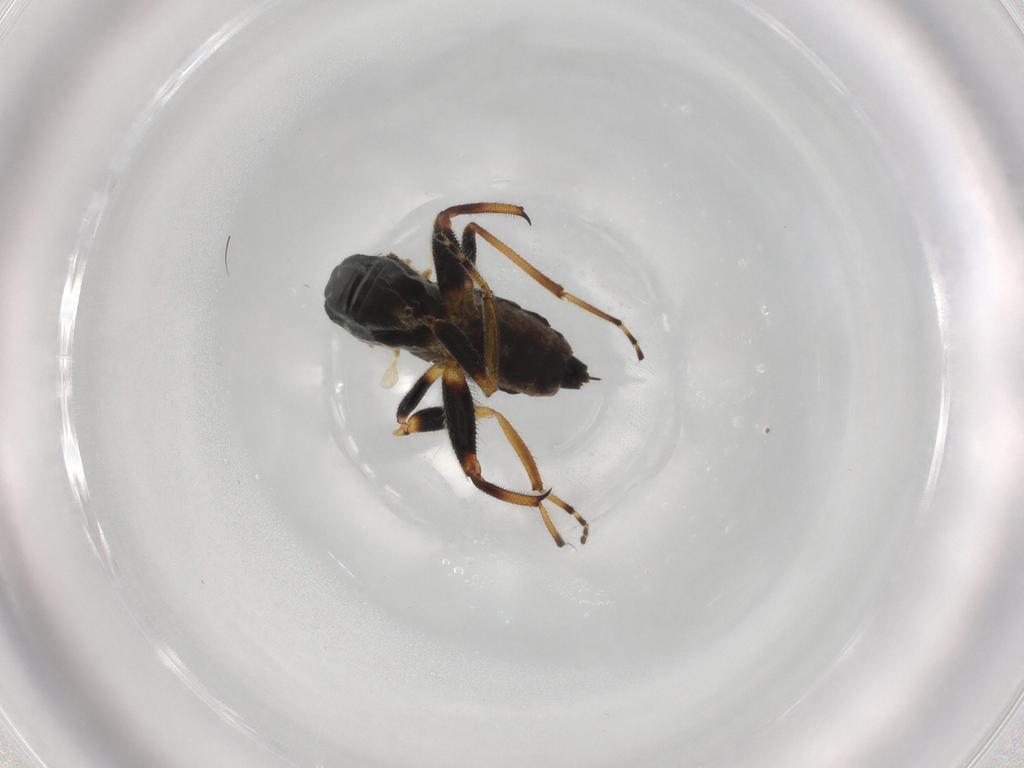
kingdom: Animalia
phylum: Arthropoda
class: Insecta
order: Diptera
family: Hybotidae
